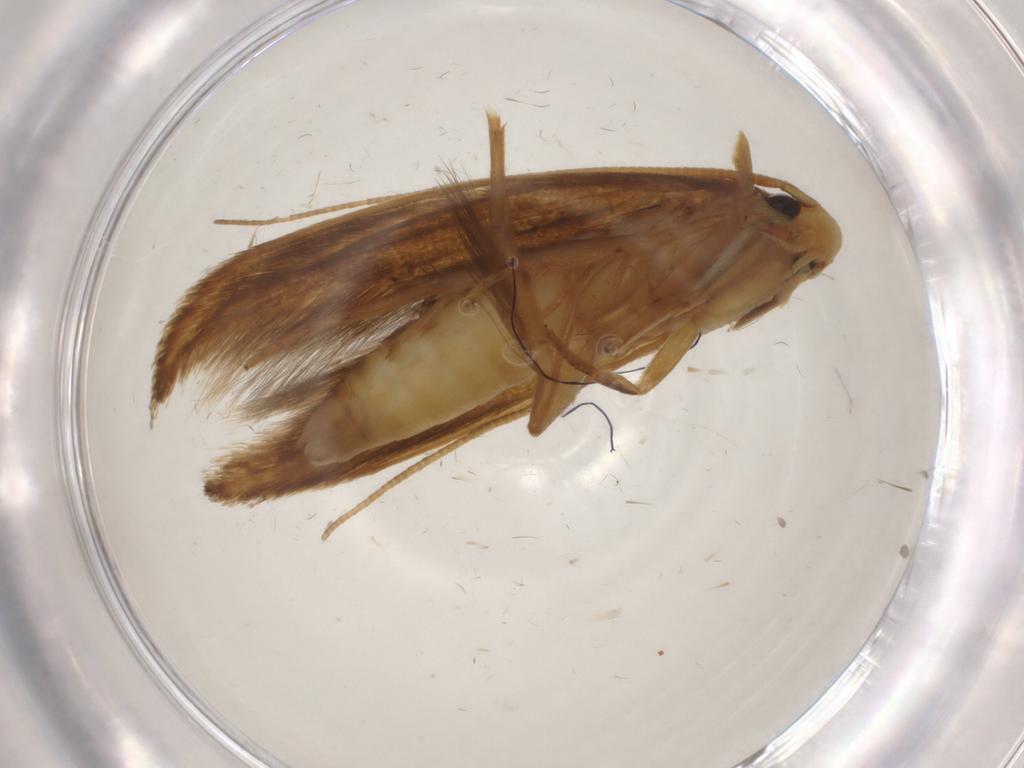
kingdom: Animalia
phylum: Arthropoda
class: Insecta
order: Lepidoptera
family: Tineidae
